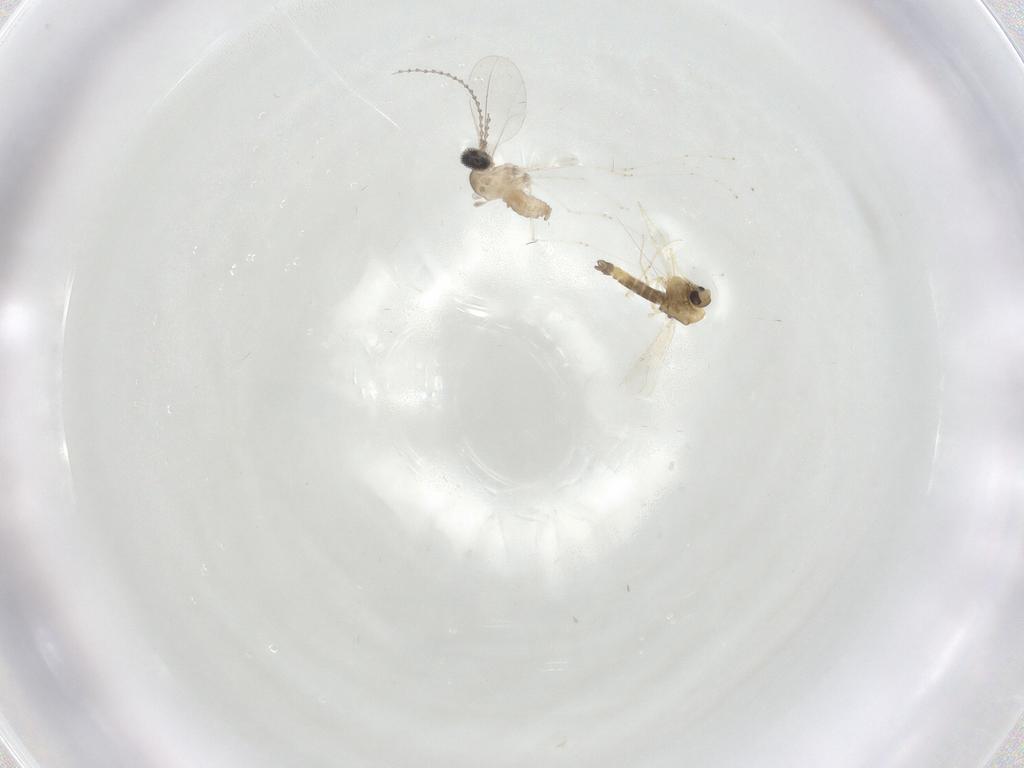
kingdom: Animalia
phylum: Arthropoda
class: Insecta
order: Diptera
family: Cecidomyiidae
